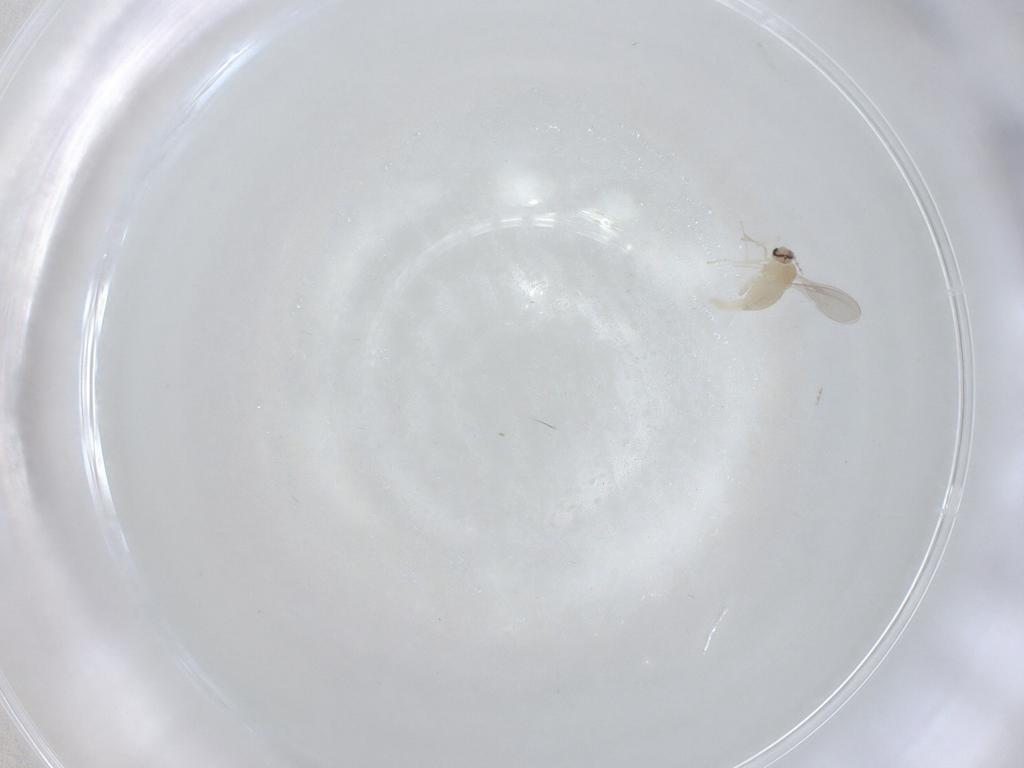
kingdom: Animalia
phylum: Arthropoda
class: Insecta
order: Diptera
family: Cecidomyiidae
